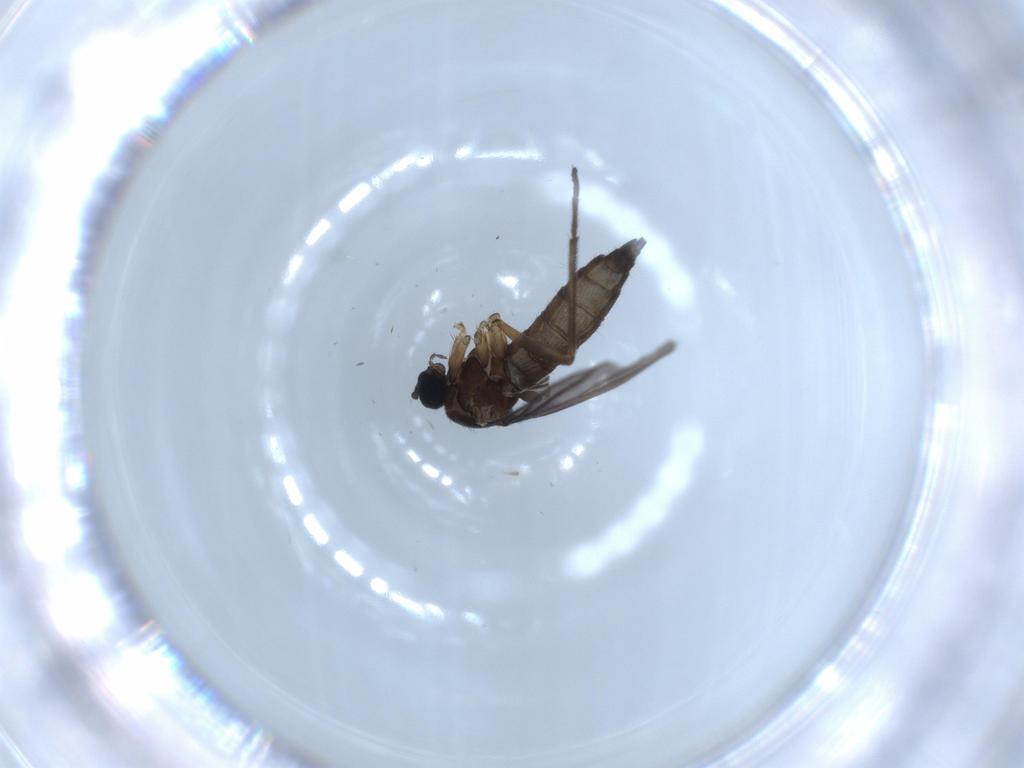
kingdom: Animalia
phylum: Arthropoda
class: Insecta
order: Diptera
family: Sciaridae
